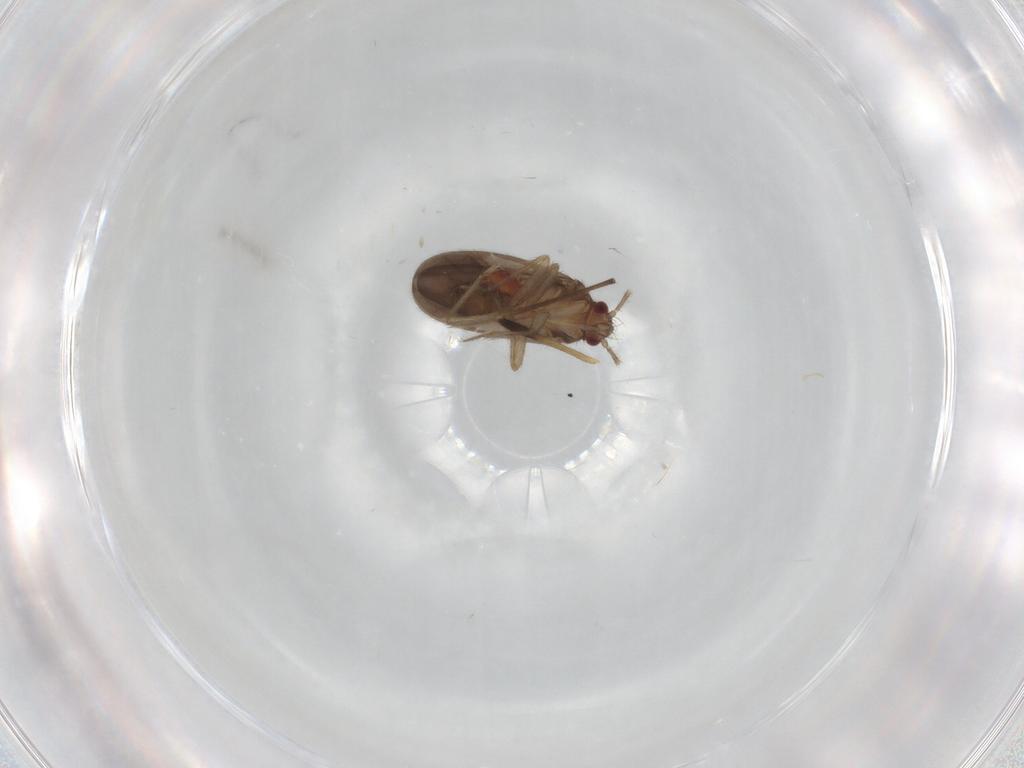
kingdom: Animalia
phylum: Arthropoda
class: Insecta
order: Hemiptera
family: Ceratocombidae
